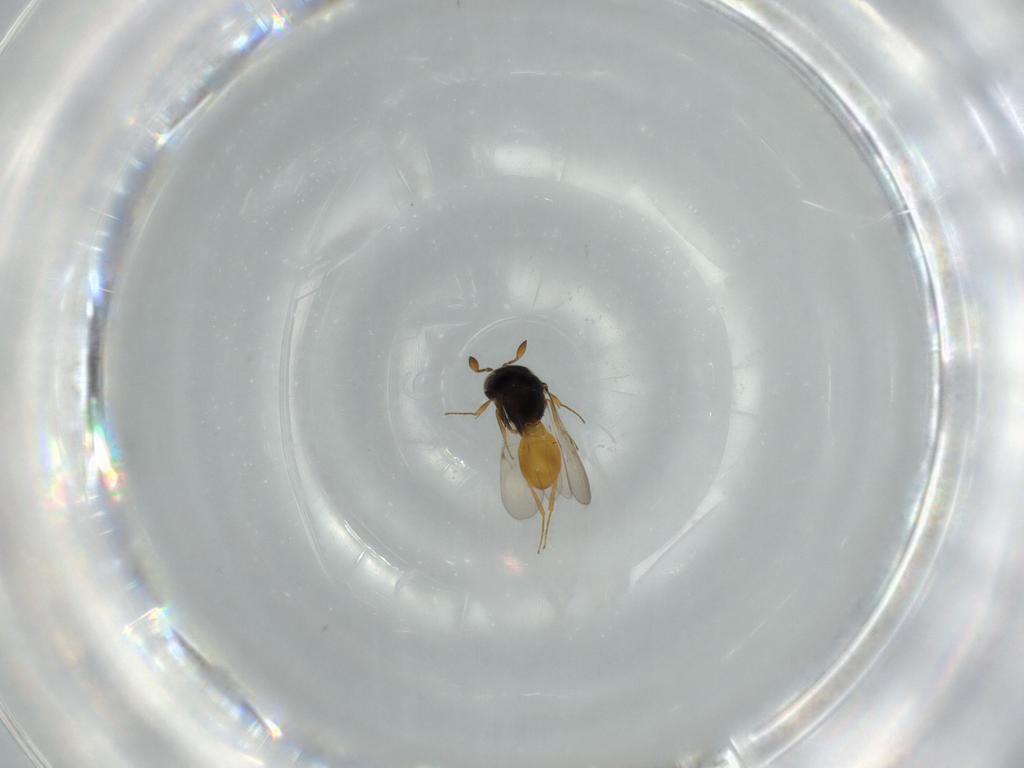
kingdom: Animalia
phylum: Arthropoda
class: Insecta
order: Hymenoptera
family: Scelionidae
